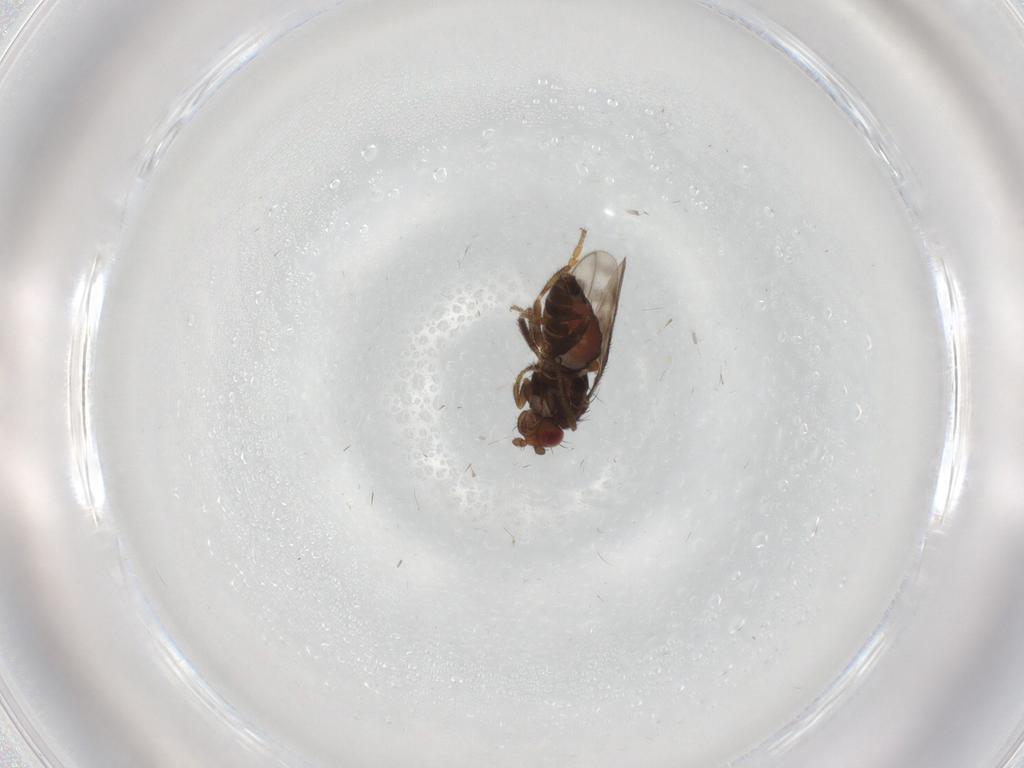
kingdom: Animalia
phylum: Arthropoda
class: Insecta
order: Diptera
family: Sphaeroceridae
